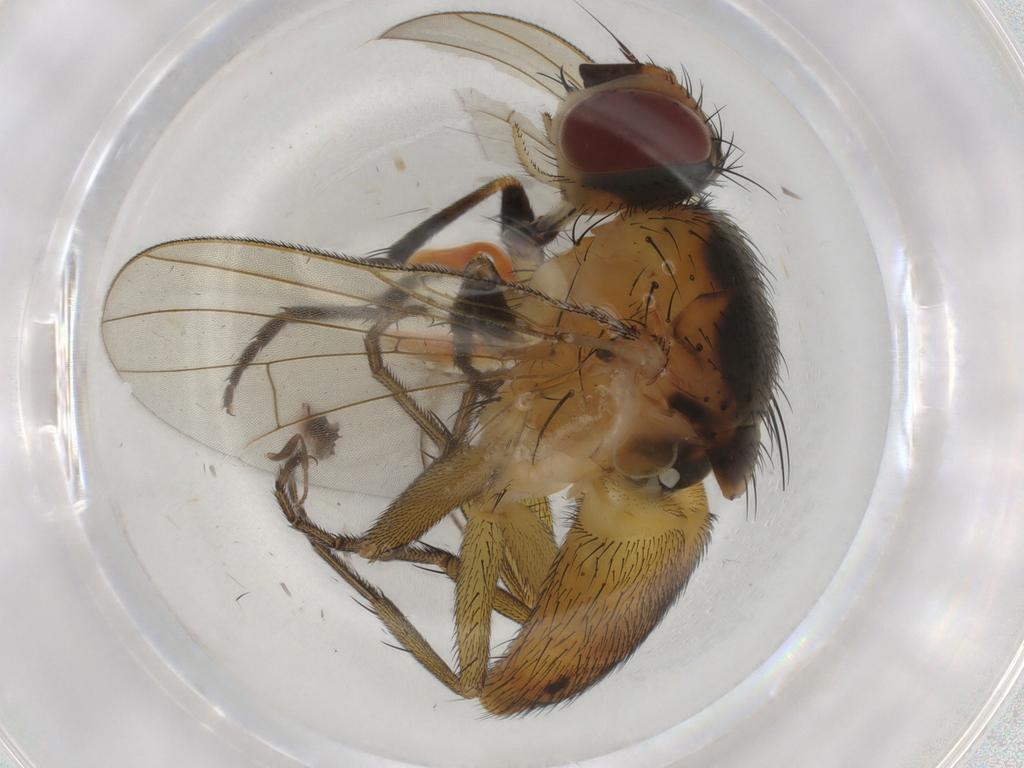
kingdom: Animalia
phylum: Arthropoda
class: Insecta
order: Diptera
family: Muscidae
